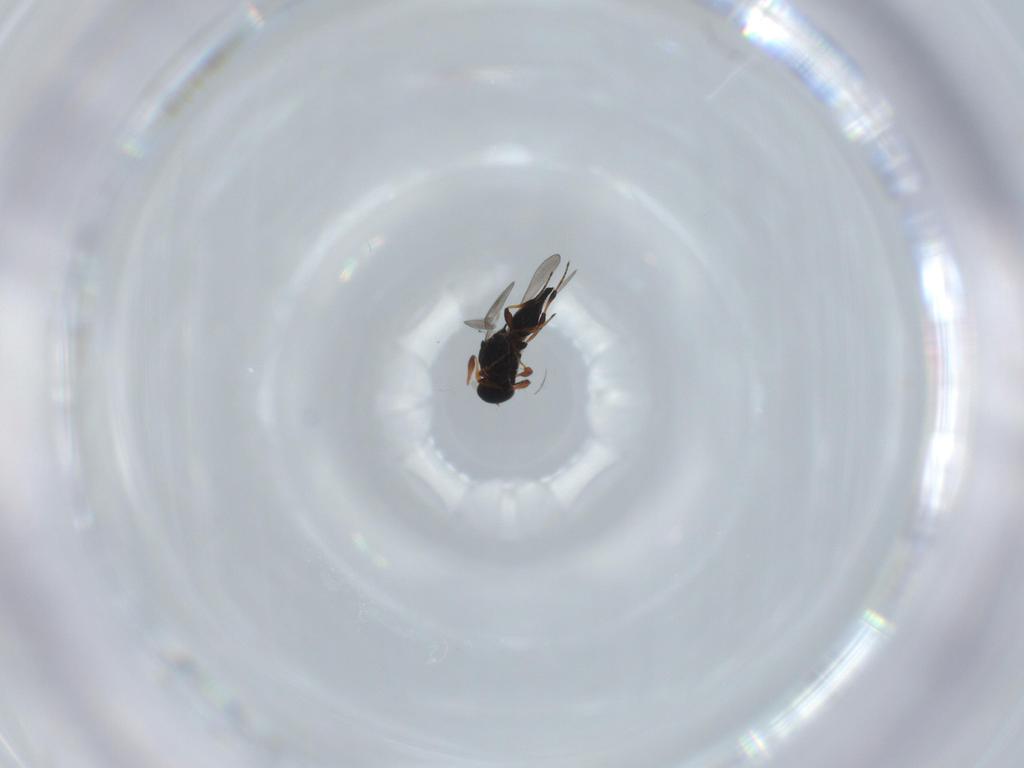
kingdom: Animalia
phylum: Arthropoda
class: Insecta
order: Hymenoptera
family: Platygastridae
